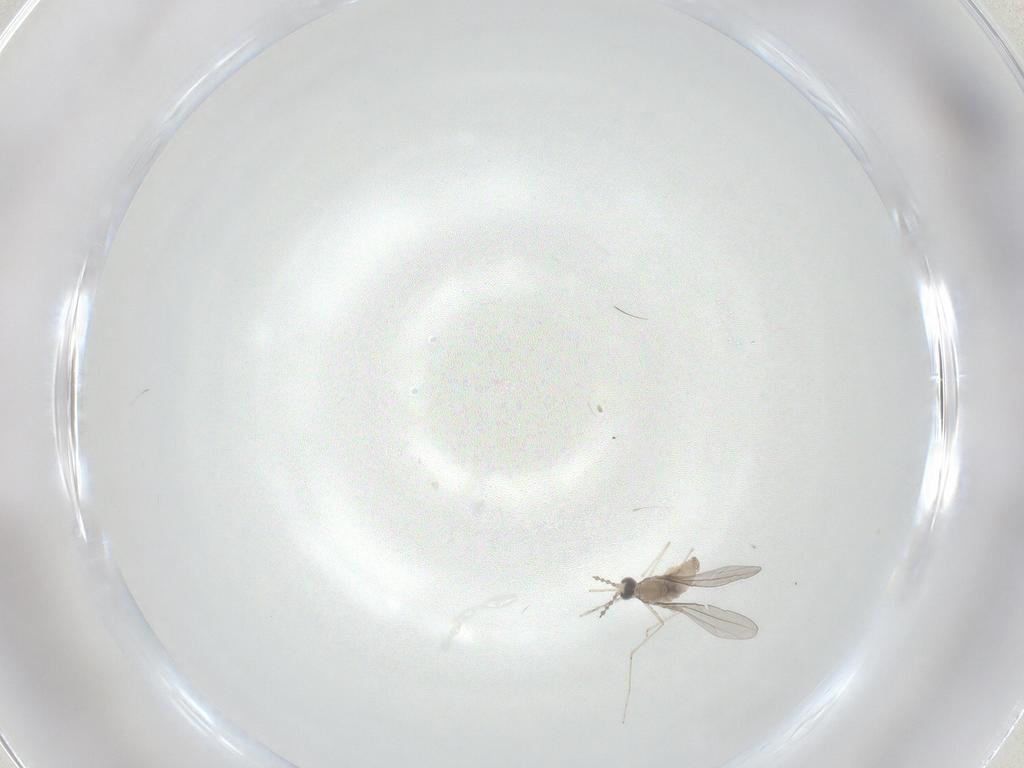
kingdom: Animalia
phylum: Arthropoda
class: Insecta
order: Diptera
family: Cecidomyiidae
